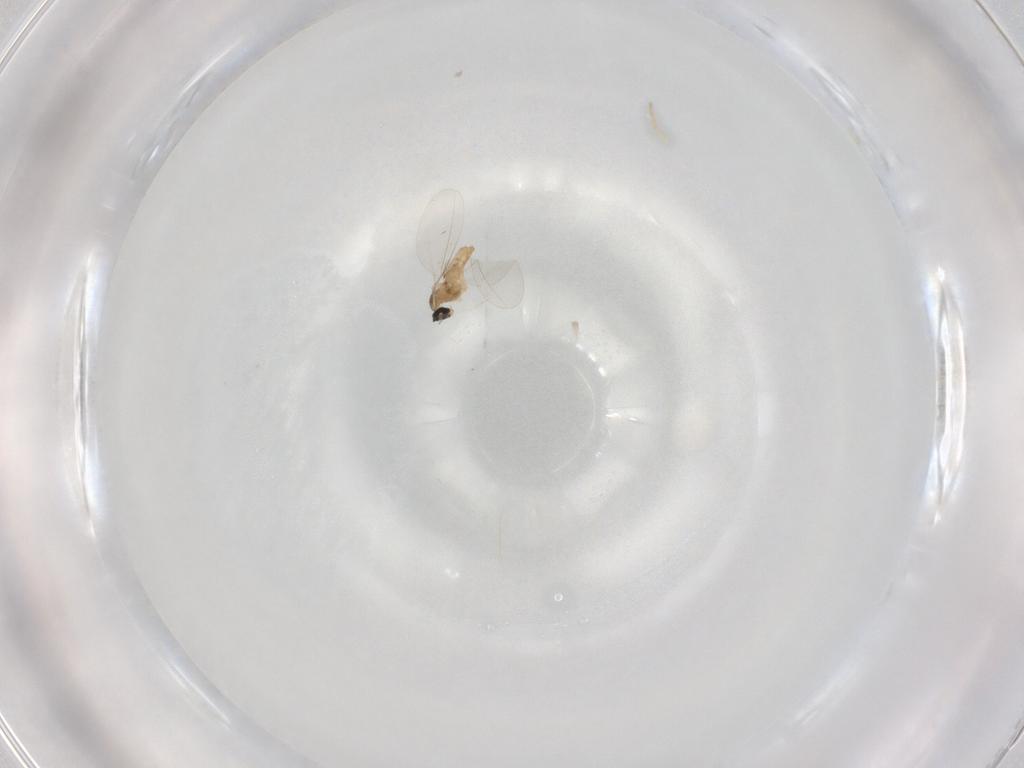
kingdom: Animalia
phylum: Arthropoda
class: Insecta
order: Diptera
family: Cecidomyiidae
